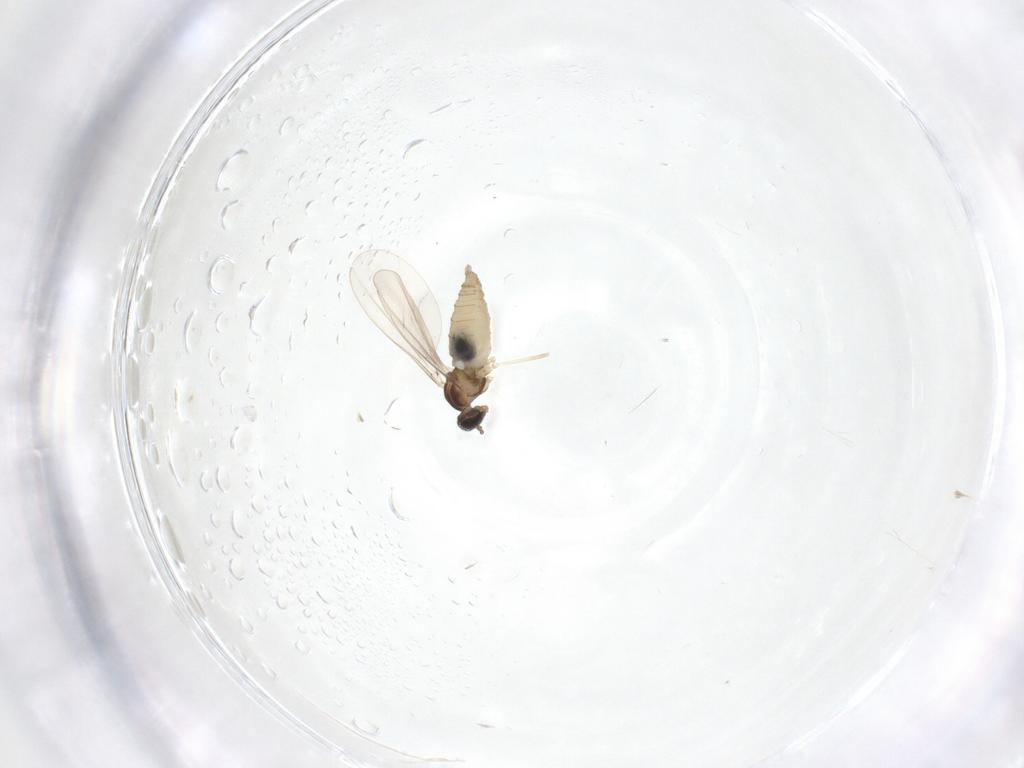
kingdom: Animalia
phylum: Arthropoda
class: Insecta
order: Diptera
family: Cecidomyiidae
